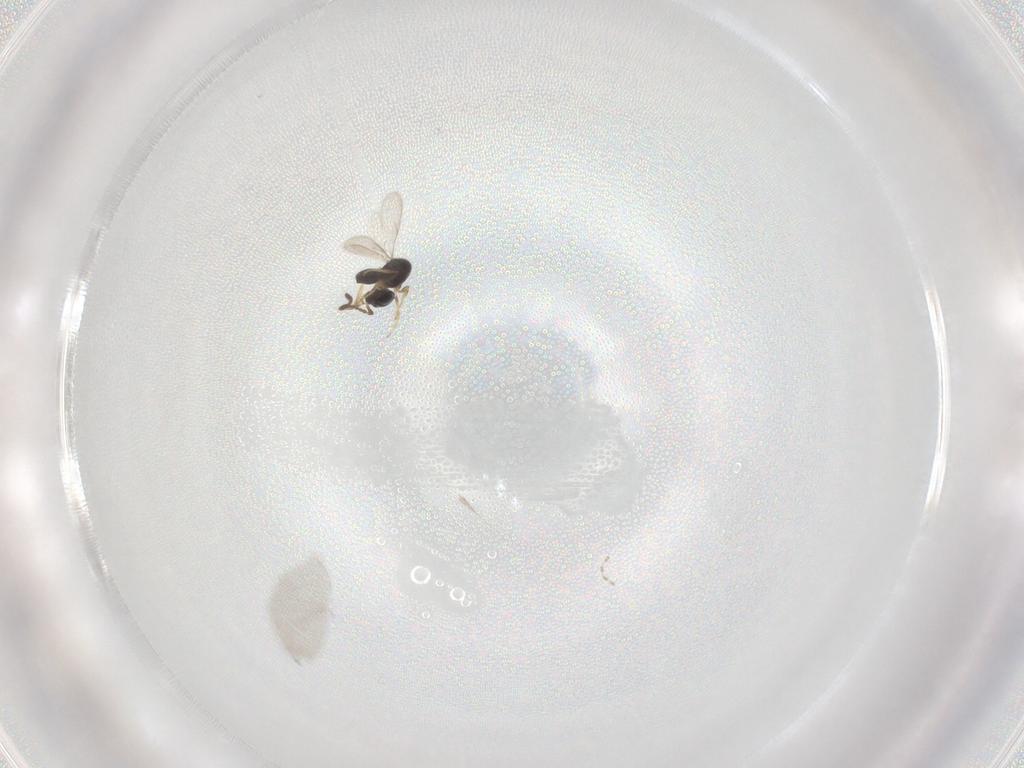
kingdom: Animalia
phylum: Arthropoda
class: Insecta
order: Hymenoptera
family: Scelionidae
